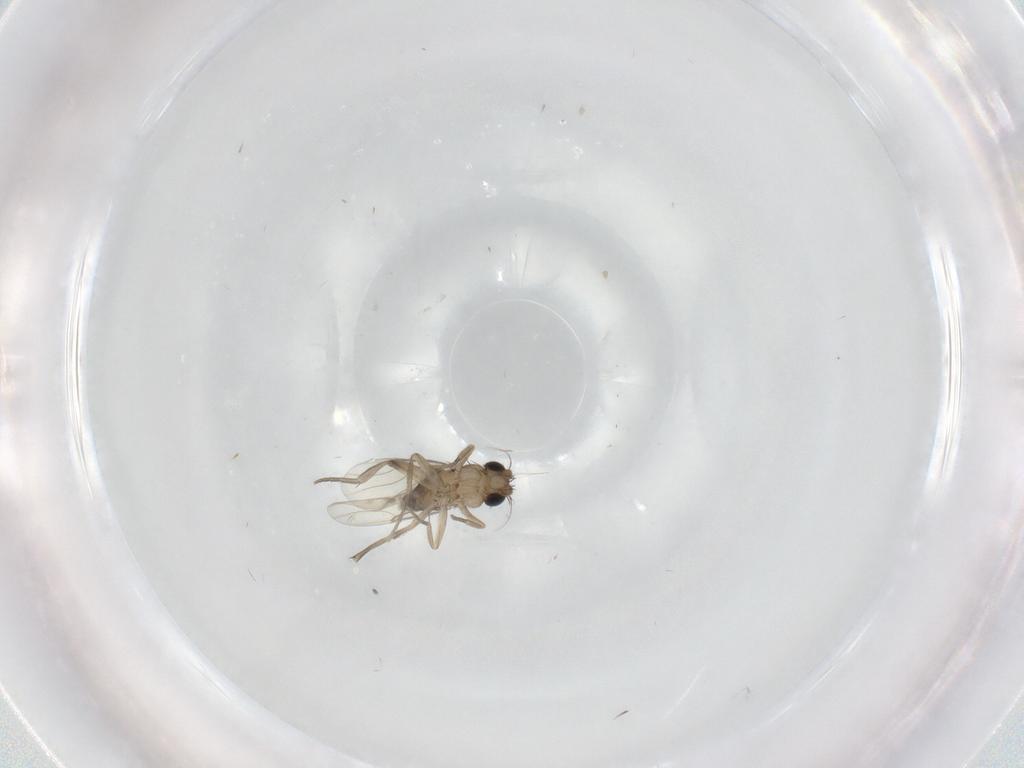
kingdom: Animalia
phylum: Arthropoda
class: Insecta
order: Diptera
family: Phoridae
